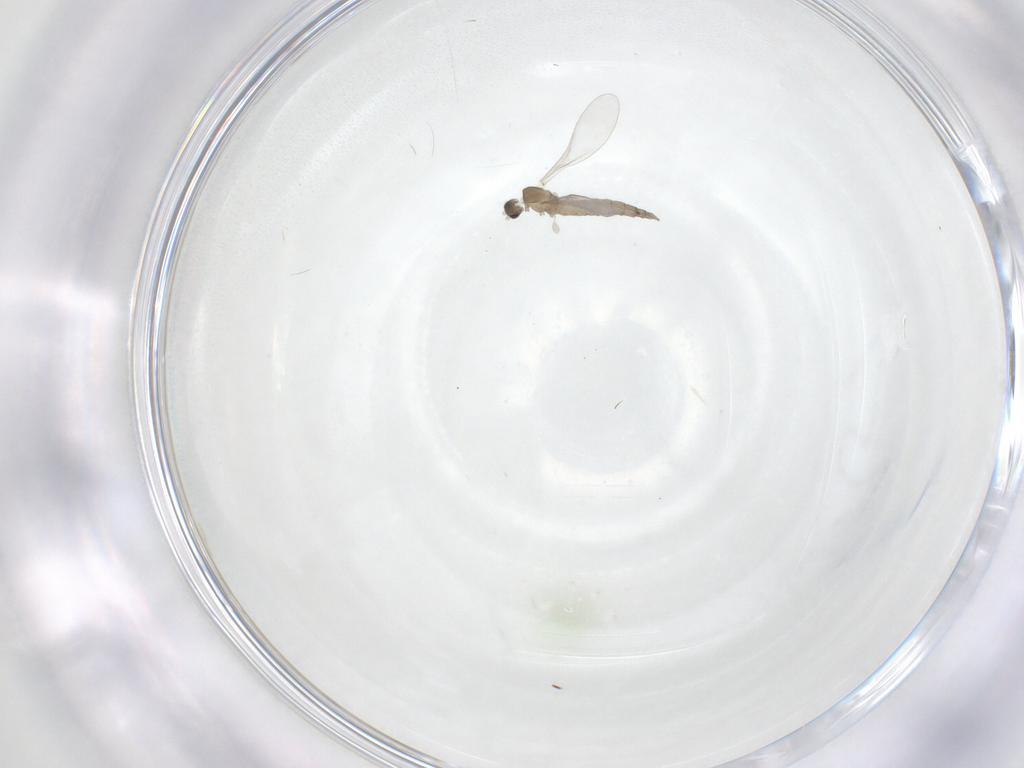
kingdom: Animalia
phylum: Arthropoda
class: Insecta
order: Diptera
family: Cecidomyiidae
